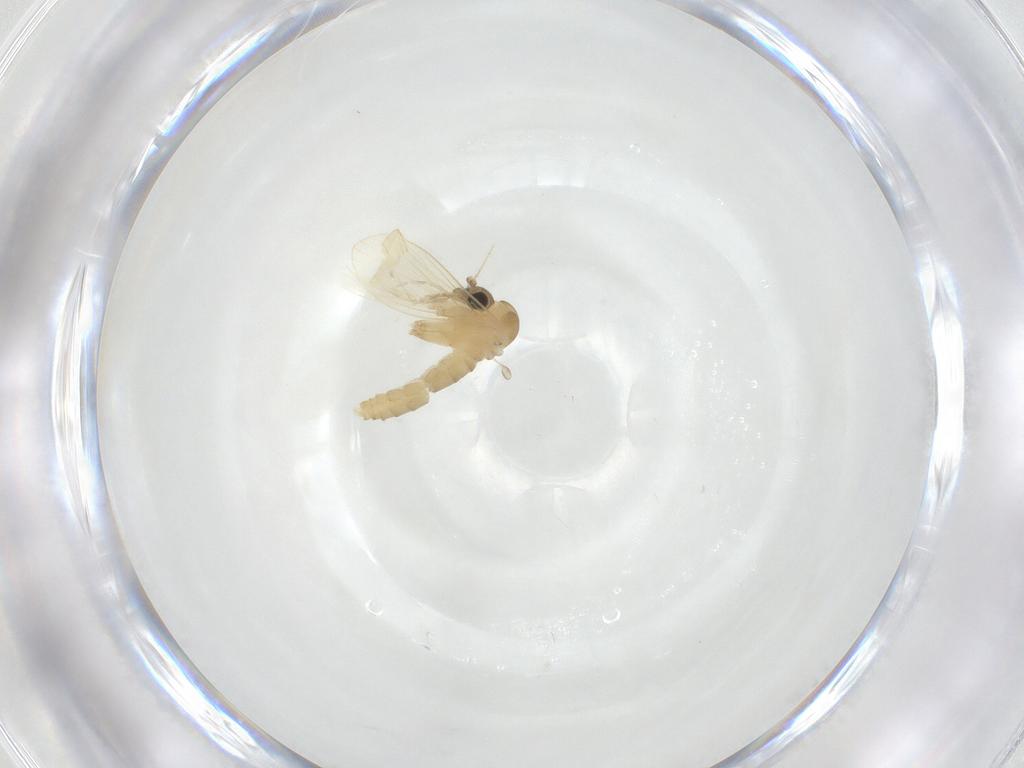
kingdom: Animalia
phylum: Arthropoda
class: Insecta
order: Diptera
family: Anthomyiidae
